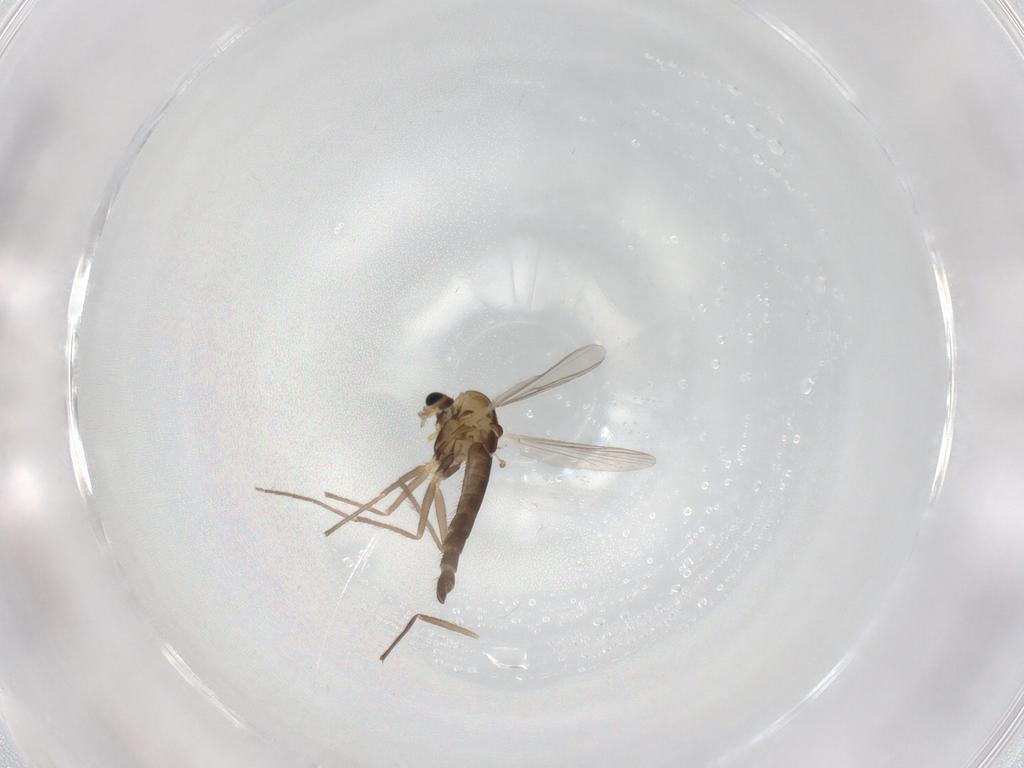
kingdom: Animalia
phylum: Arthropoda
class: Insecta
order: Diptera
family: Chironomidae
